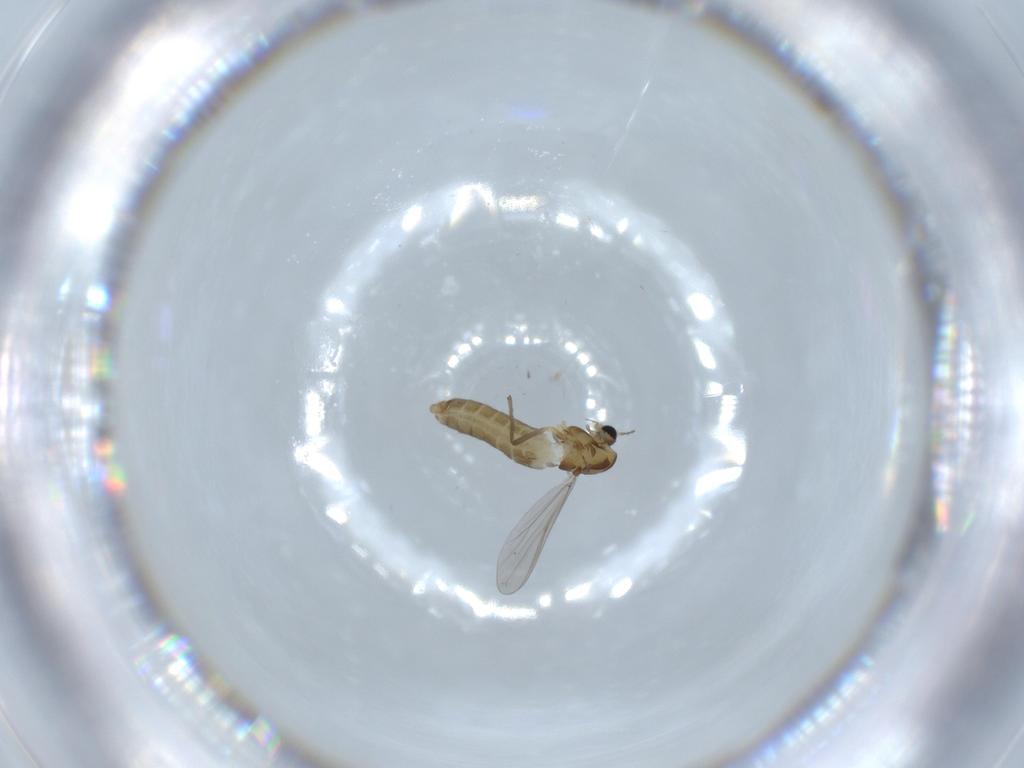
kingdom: Animalia
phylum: Arthropoda
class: Insecta
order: Diptera
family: Chironomidae
